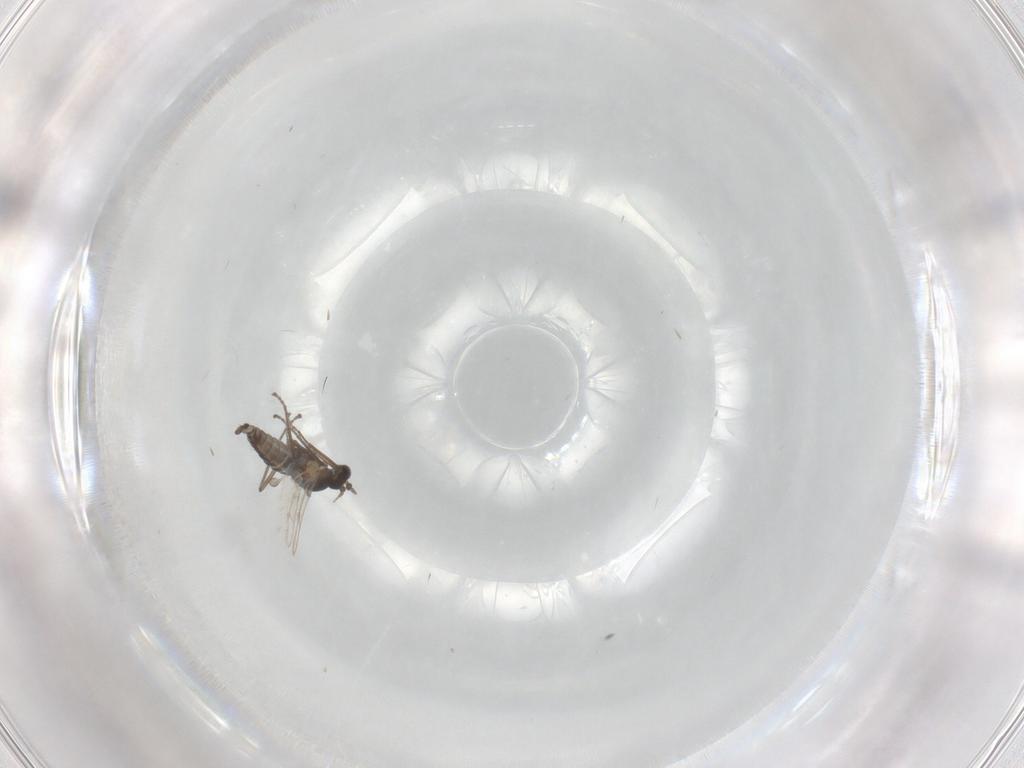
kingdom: Animalia
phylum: Arthropoda
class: Insecta
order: Diptera
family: Cecidomyiidae
